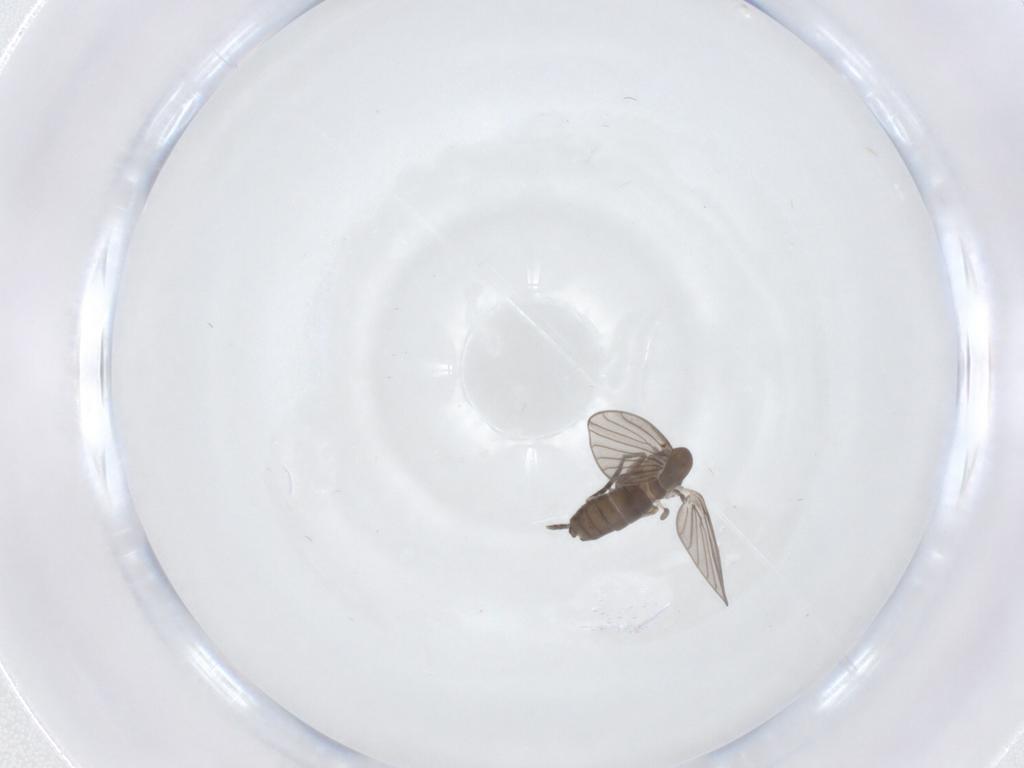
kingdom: Animalia
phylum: Arthropoda
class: Insecta
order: Diptera
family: Psychodidae
